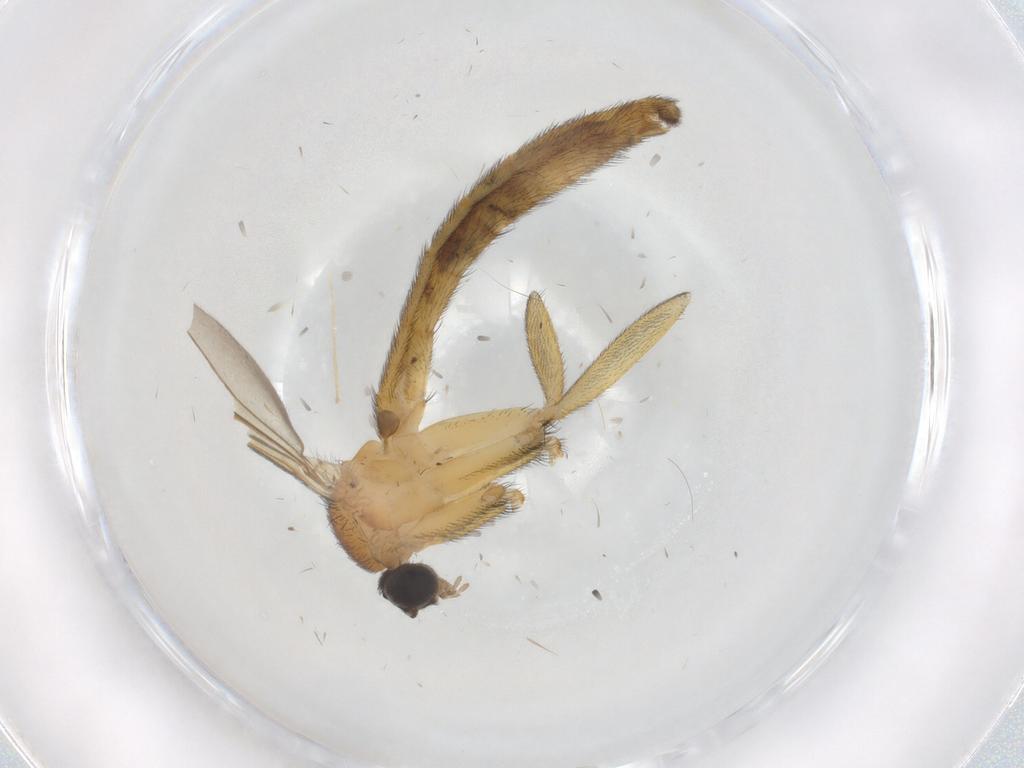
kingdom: Animalia
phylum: Arthropoda
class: Insecta
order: Diptera
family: Dolichopodidae
